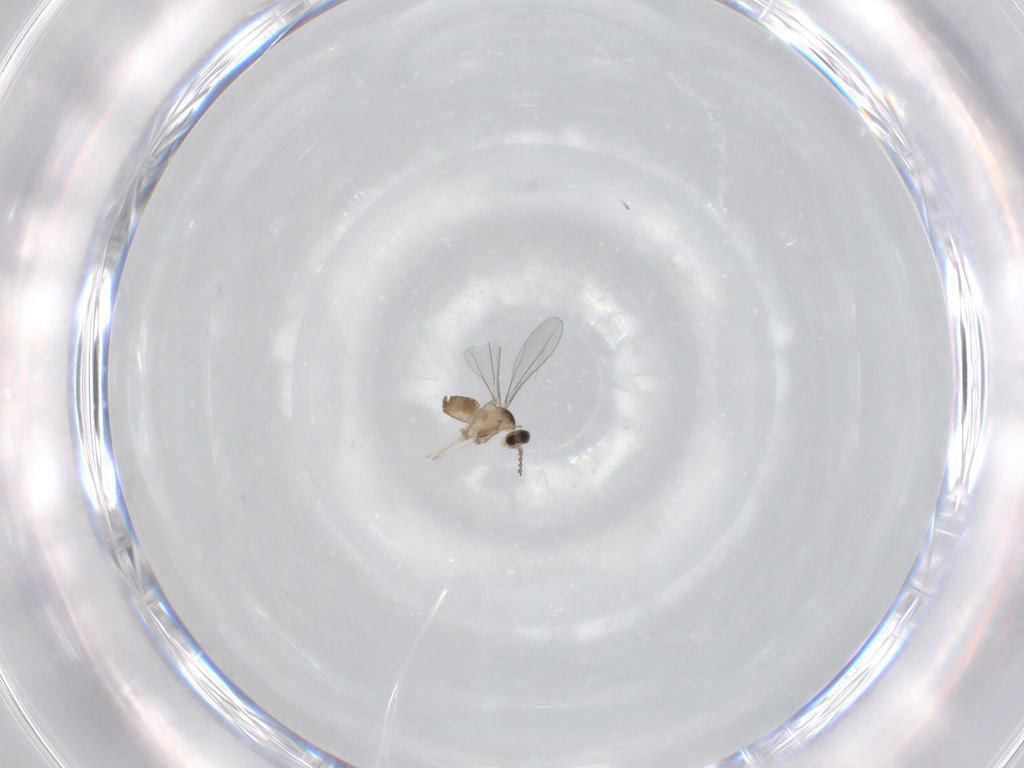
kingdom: Animalia
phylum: Arthropoda
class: Insecta
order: Diptera
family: Cecidomyiidae
